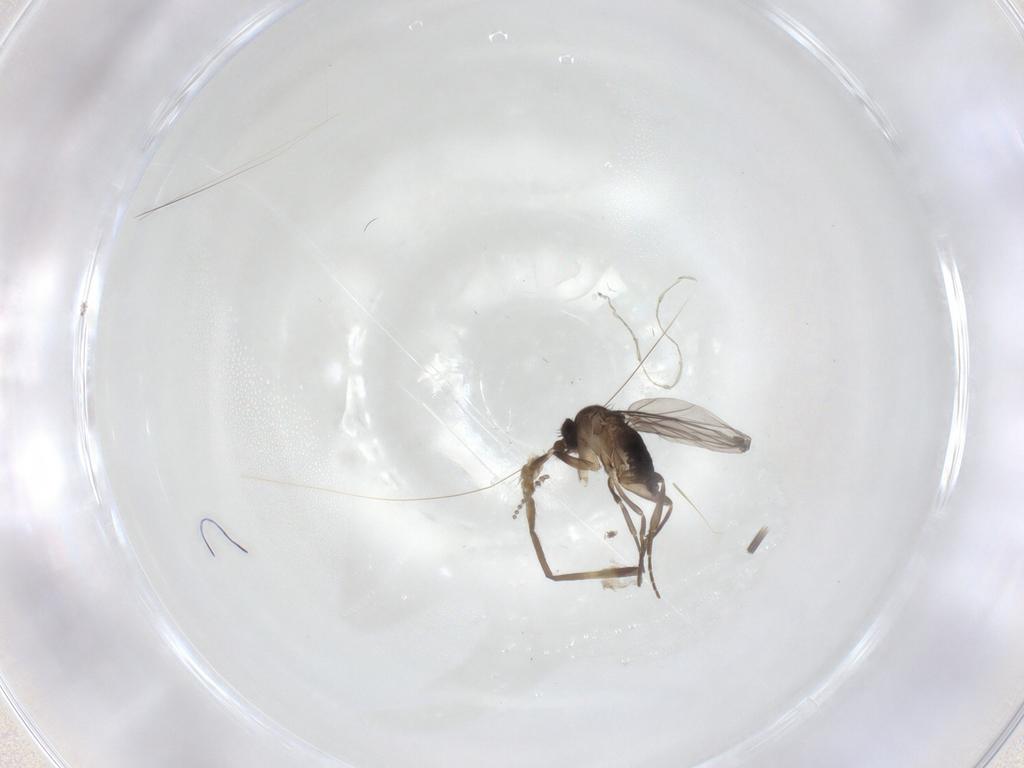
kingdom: Animalia
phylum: Arthropoda
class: Insecta
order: Diptera
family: Psychodidae
